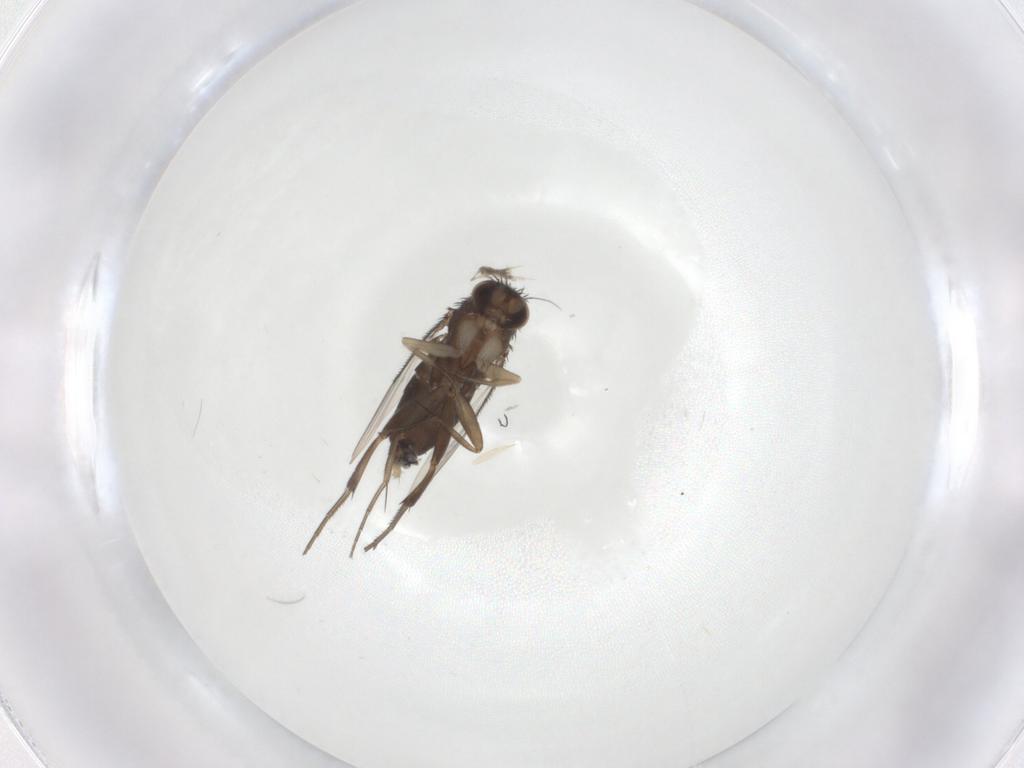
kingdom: Animalia
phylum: Arthropoda
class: Insecta
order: Diptera
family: Phoridae
